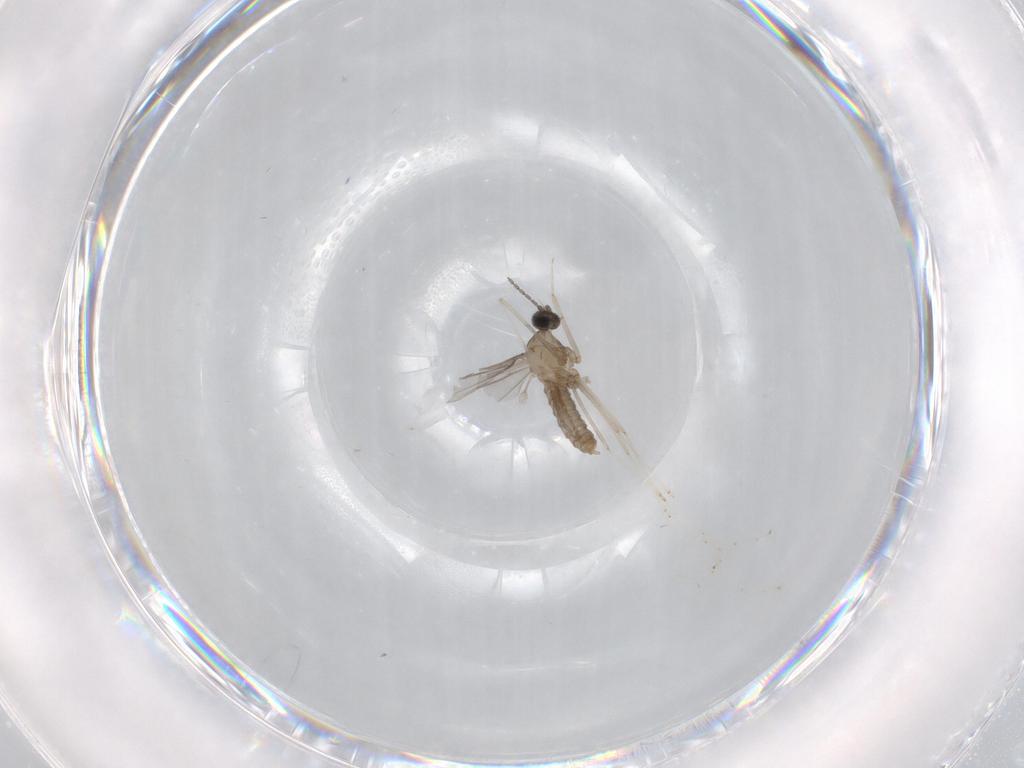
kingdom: Animalia
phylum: Arthropoda
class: Insecta
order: Diptera
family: Cecidomyiidae
